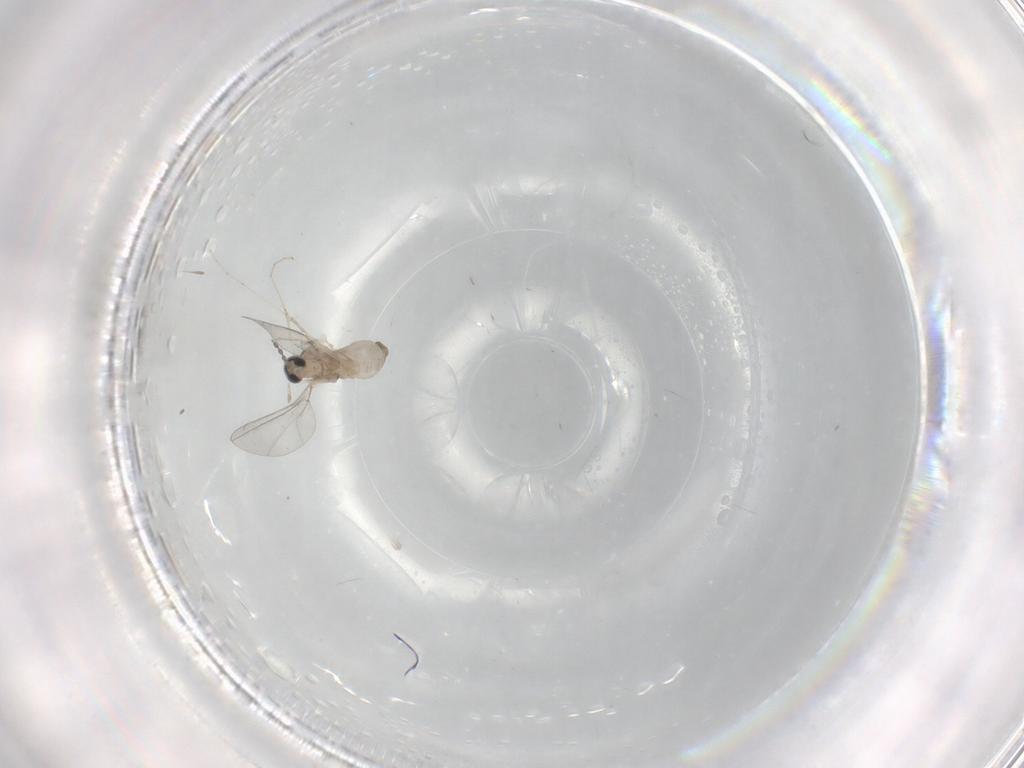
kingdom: Animalia
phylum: Arthropoda
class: Insecta
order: Diptera
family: Cecidomyiidae
